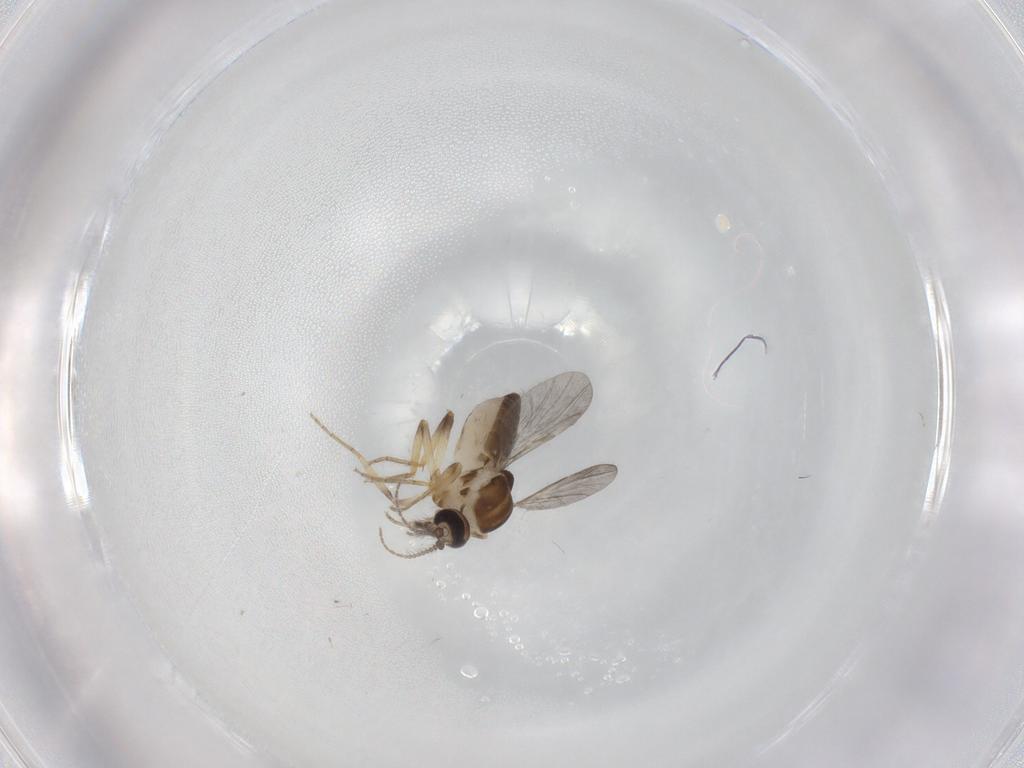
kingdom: Animalia
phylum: Arthropoda
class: Insecta
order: Diptera
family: Ceratopogonidae
